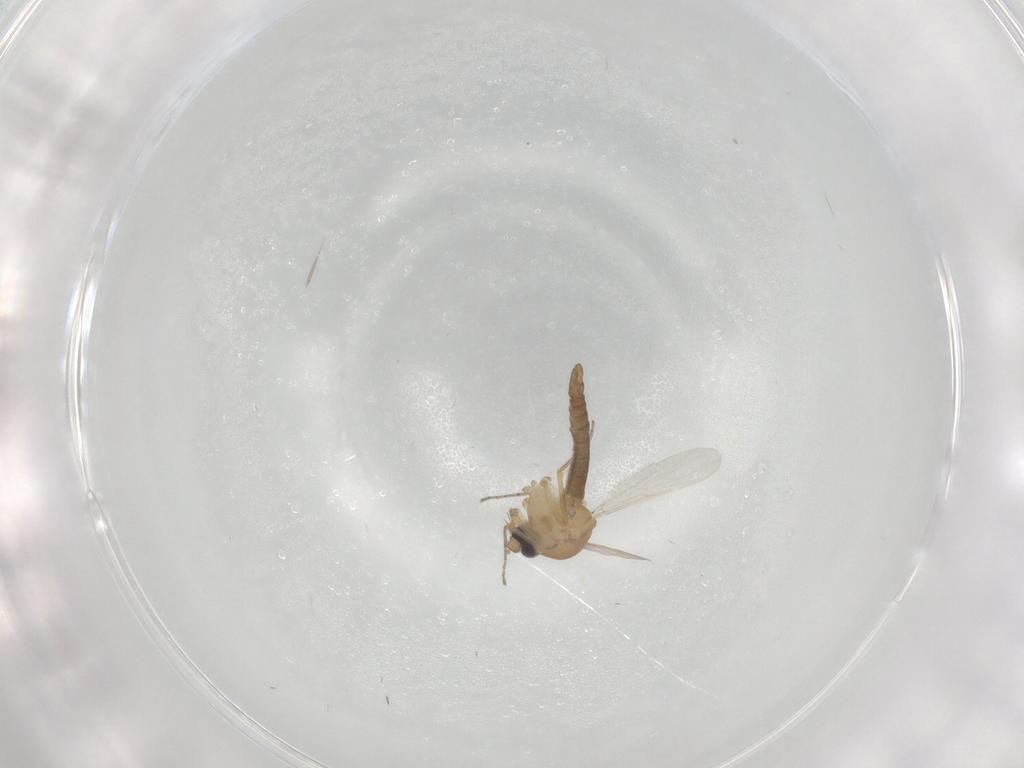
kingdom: Animalia
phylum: Arthropoda
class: Insecta
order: Diptera
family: Ceratopogonidae
